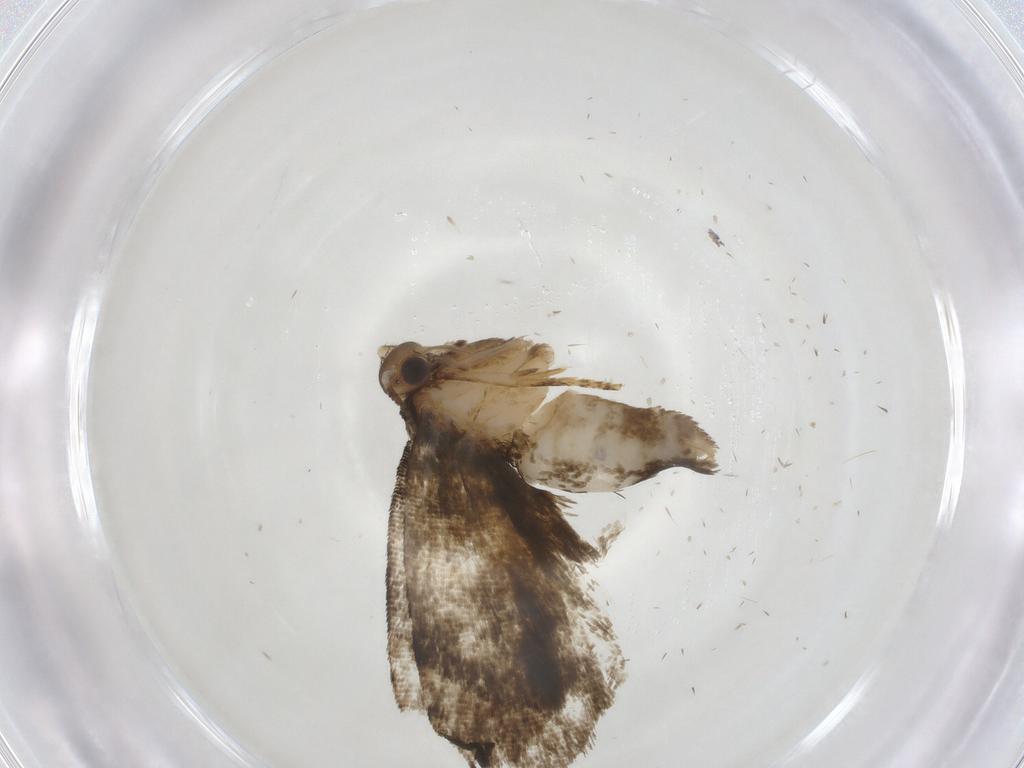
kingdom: Animalia
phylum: Arthropoda
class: Insecta
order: Lepidoptera
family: Tortricidae
